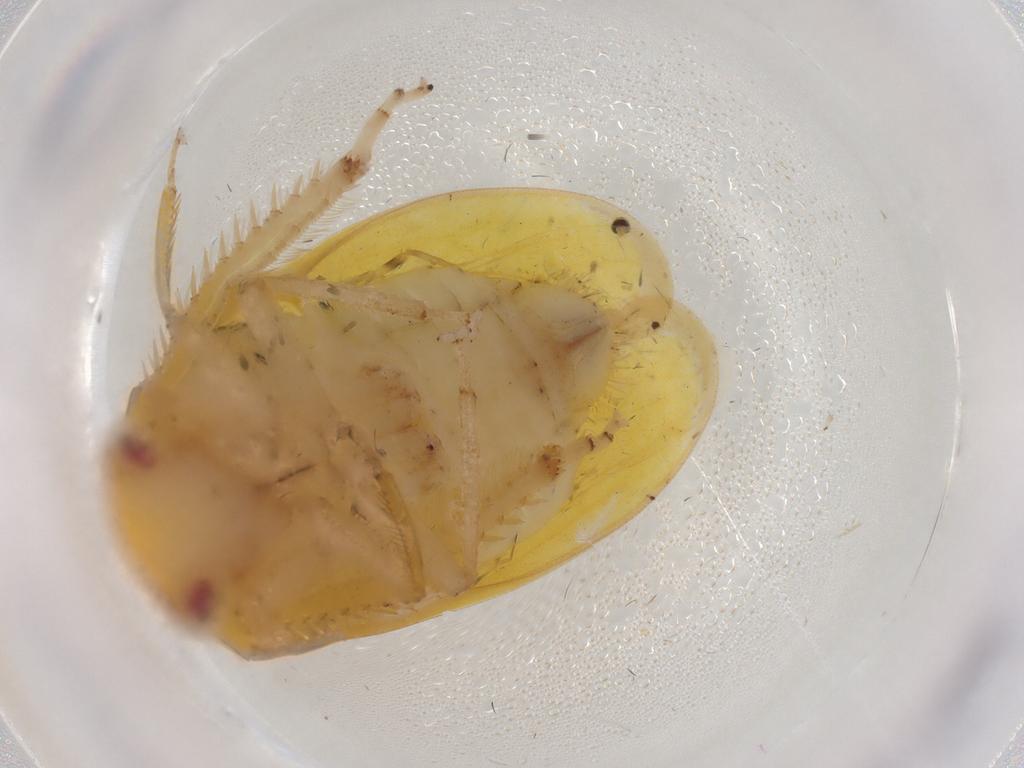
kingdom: Animalia
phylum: Arthropoda
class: Insecta
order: Hemiptera
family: Cicadellidae
